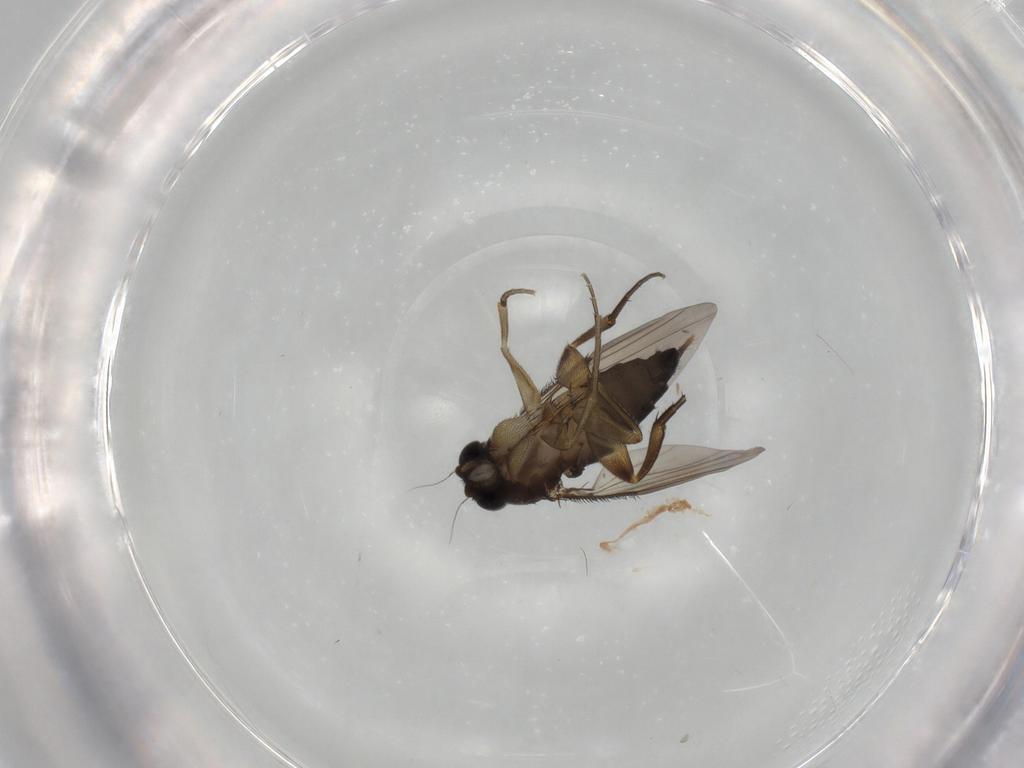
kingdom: Animalia
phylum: Arthropoda
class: Insecta
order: Diptera
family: Phoridae
